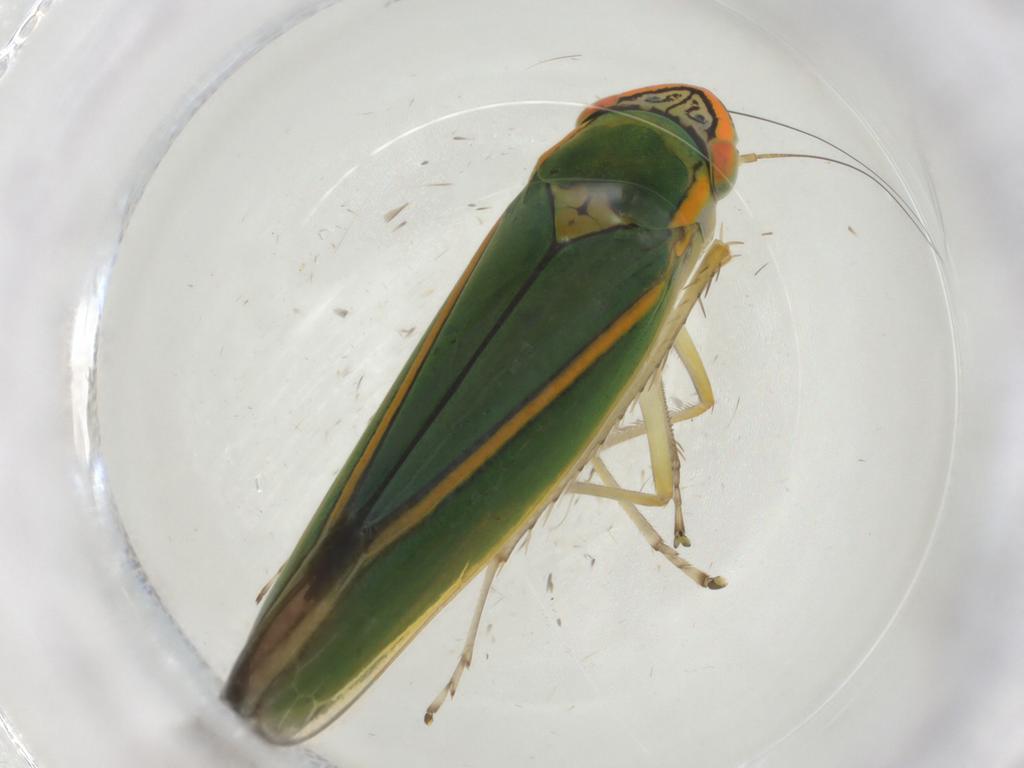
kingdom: Animalia
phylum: Arthropoda
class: Insecta
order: Hemiptera
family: Cicadellidae
